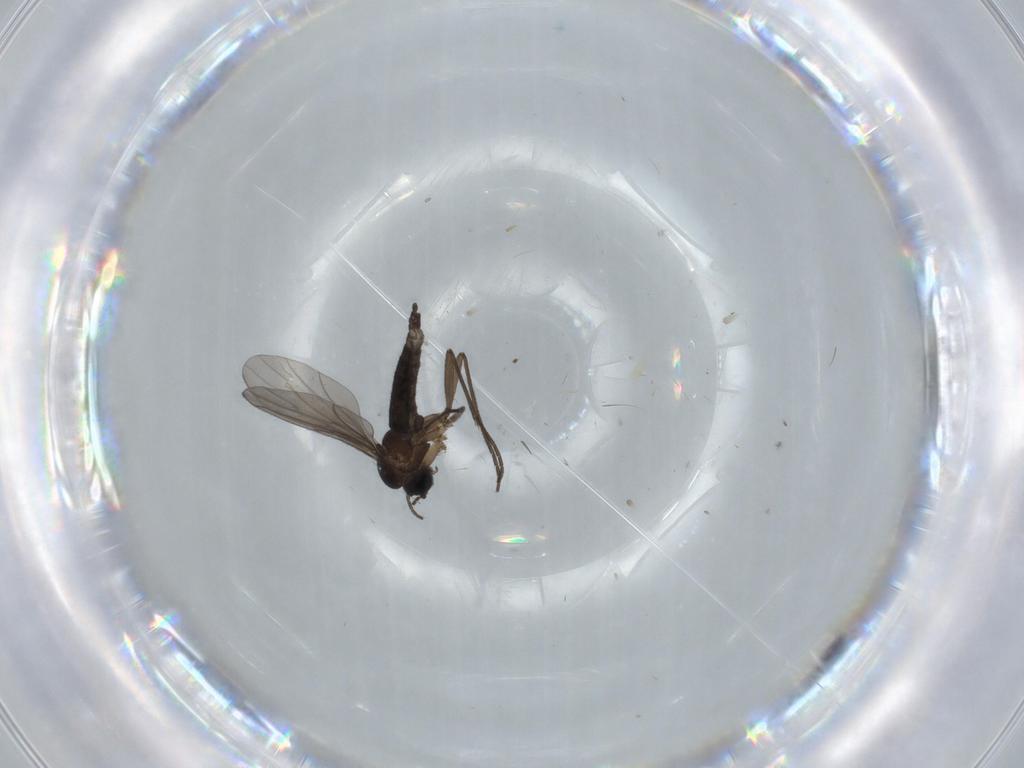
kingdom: Animalia
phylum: Arthropoda
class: Insecta
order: Diptera
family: Sciaridae
